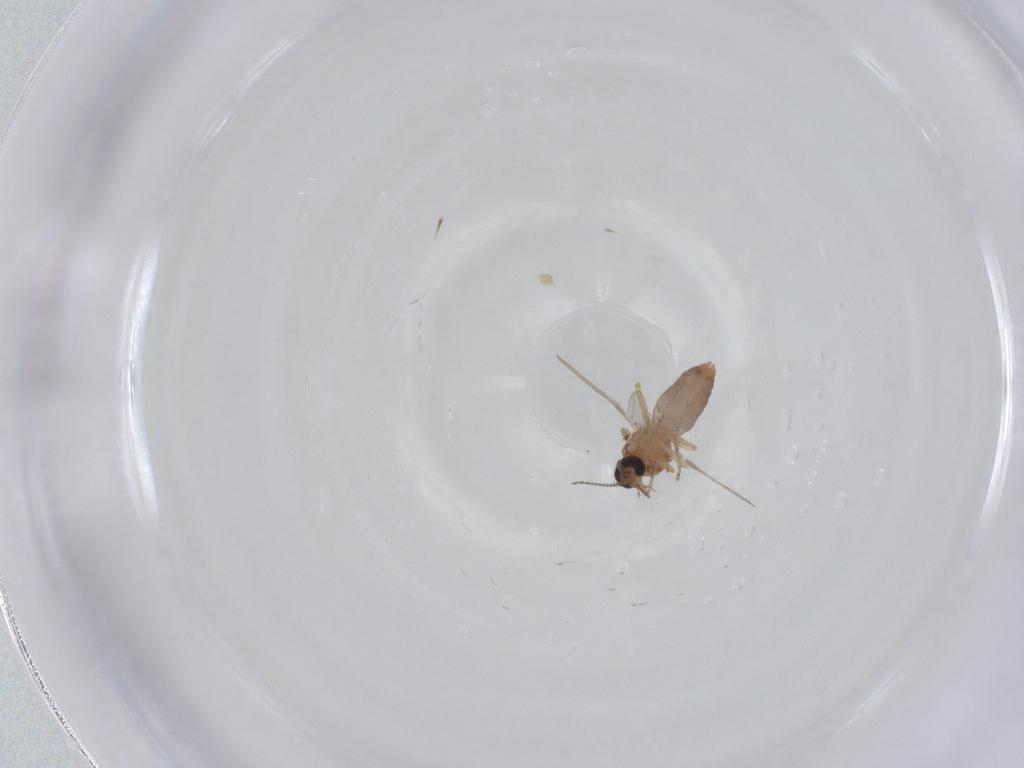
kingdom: Animalia
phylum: Arthropoda
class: Insecta
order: Diptera
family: Ceratopogonidae
